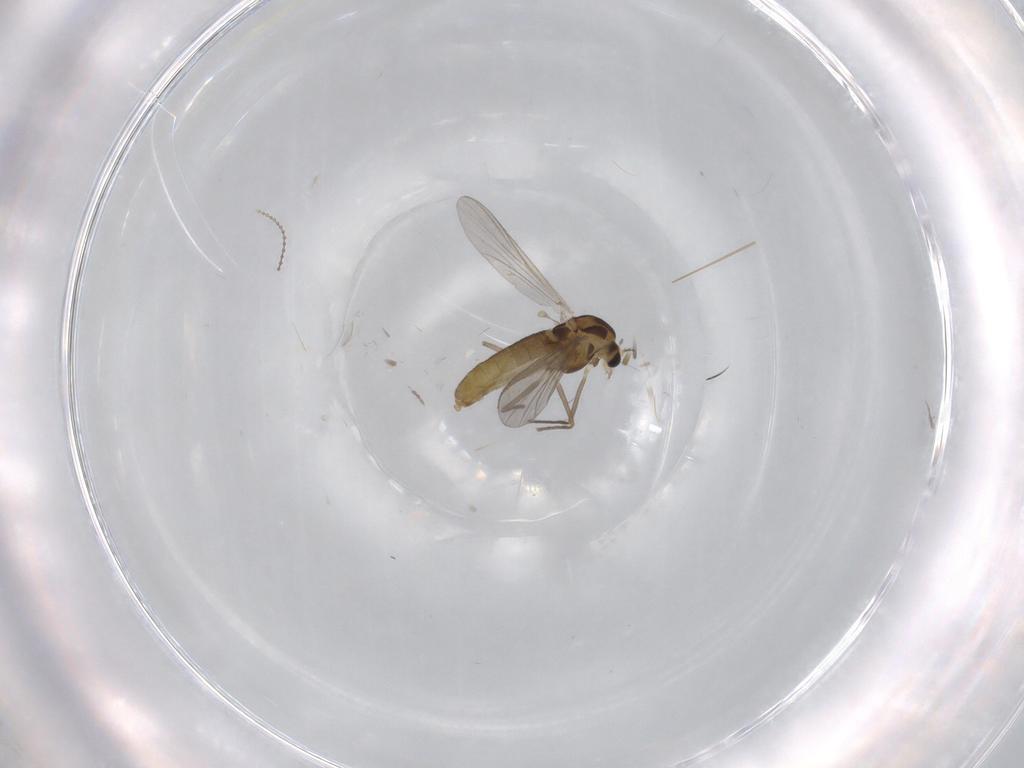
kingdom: Animalia
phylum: Arthropoda
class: Insecta
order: Diptera
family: Chironomidae
